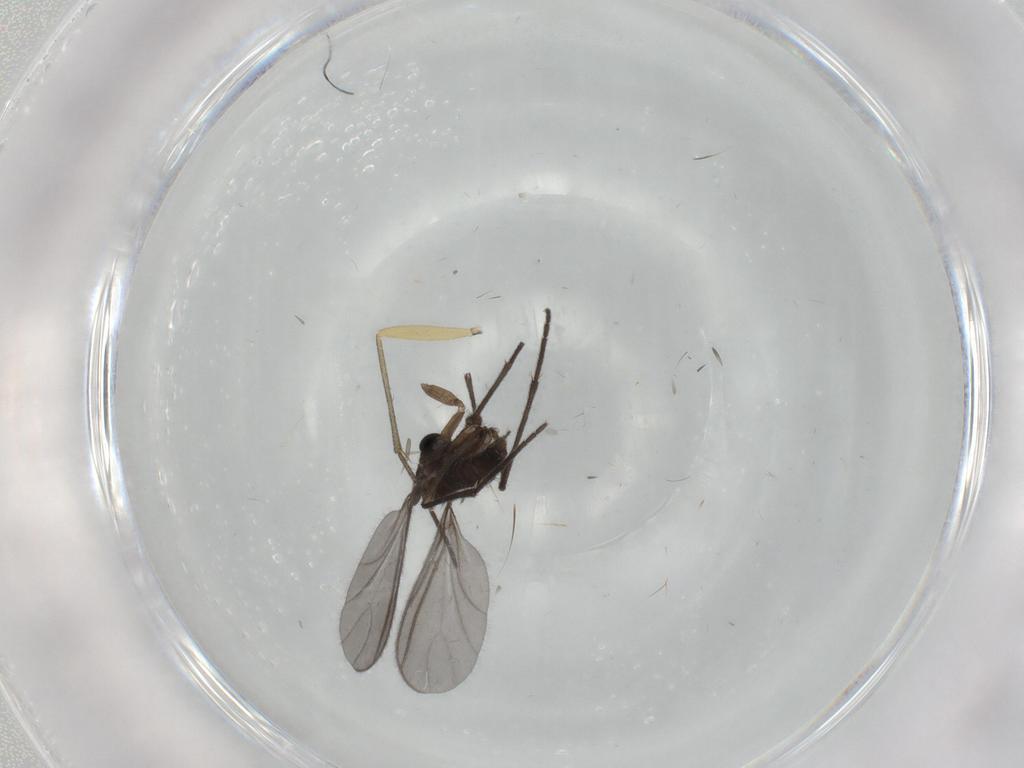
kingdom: Animalia
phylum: Arthropoda
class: Insecta
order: Diptera
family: Sciaridae
